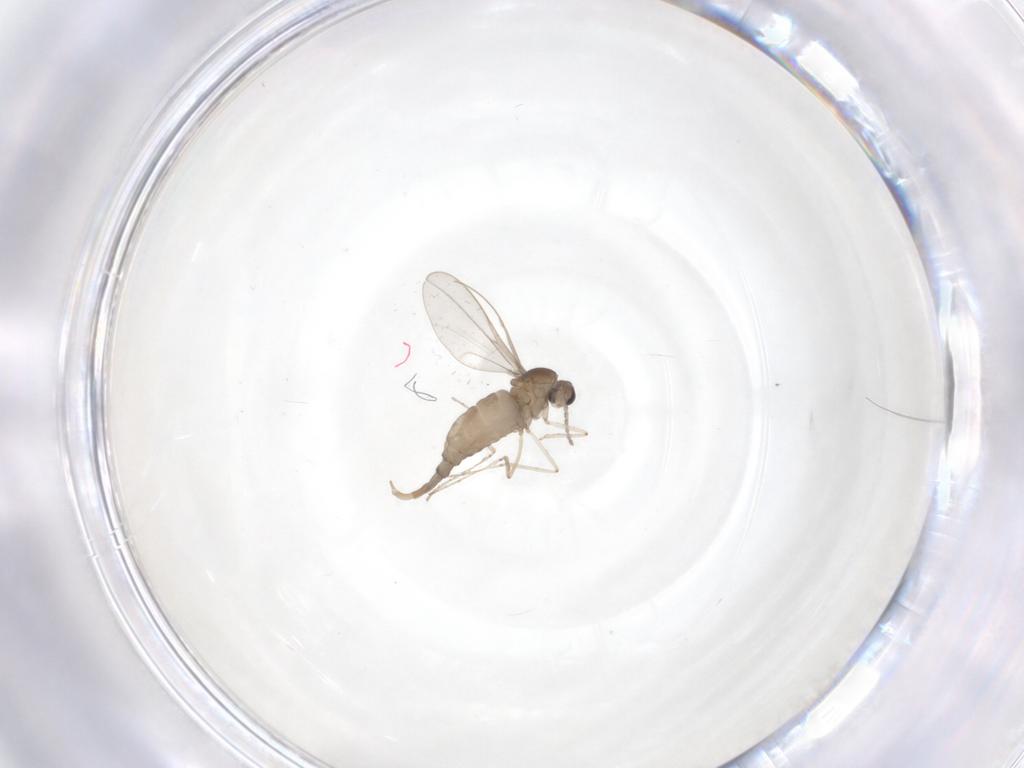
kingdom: Animalia
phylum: Arthropoda
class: Insecta
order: Diptera
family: Cecidomyiidae
